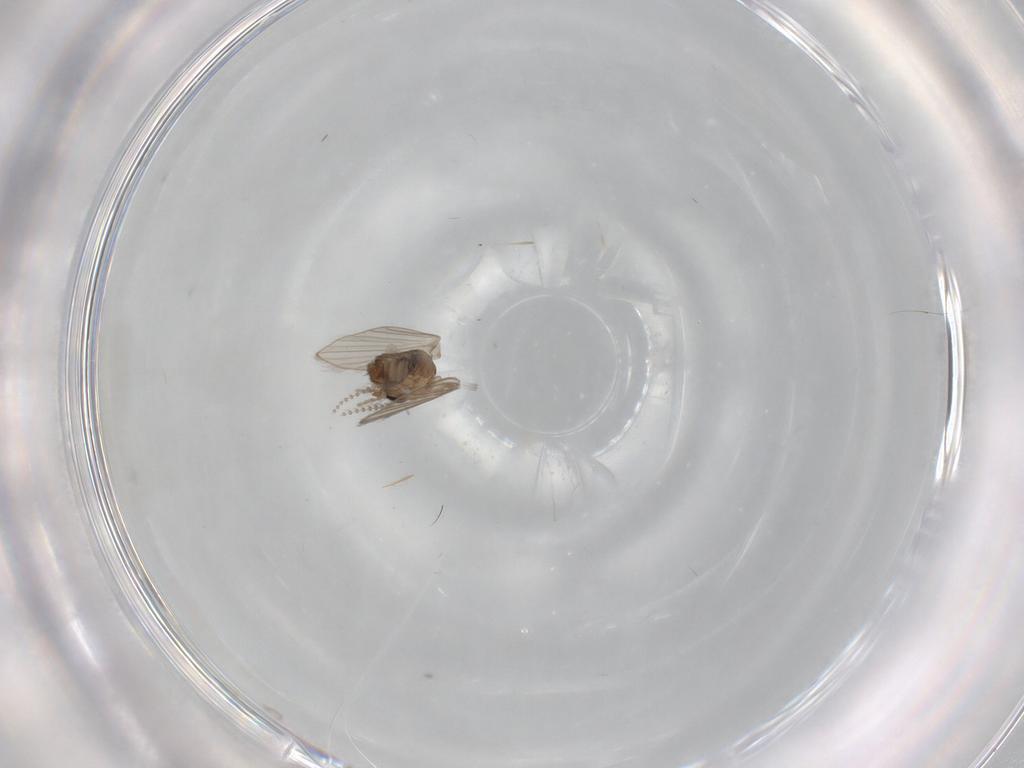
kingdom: Animalia
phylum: Arthropoda
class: Insecta
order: Diptera
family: Psychodidae
